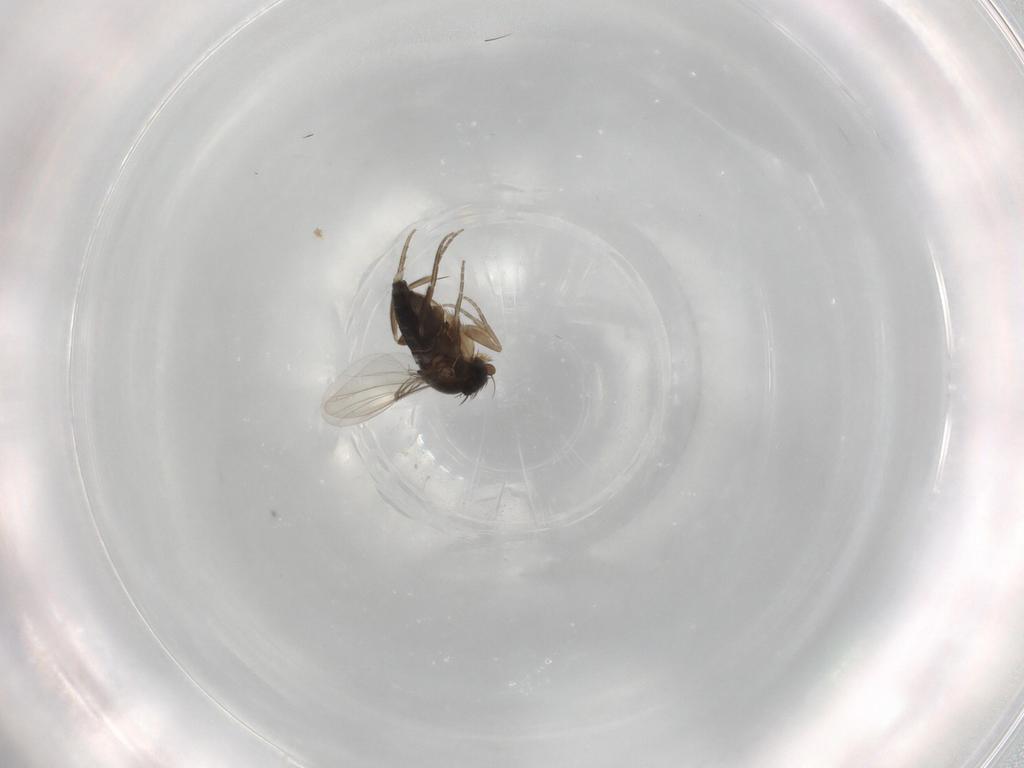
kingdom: Animalia
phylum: Arthropoda
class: Insecta
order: Diptera
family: Phoridae
